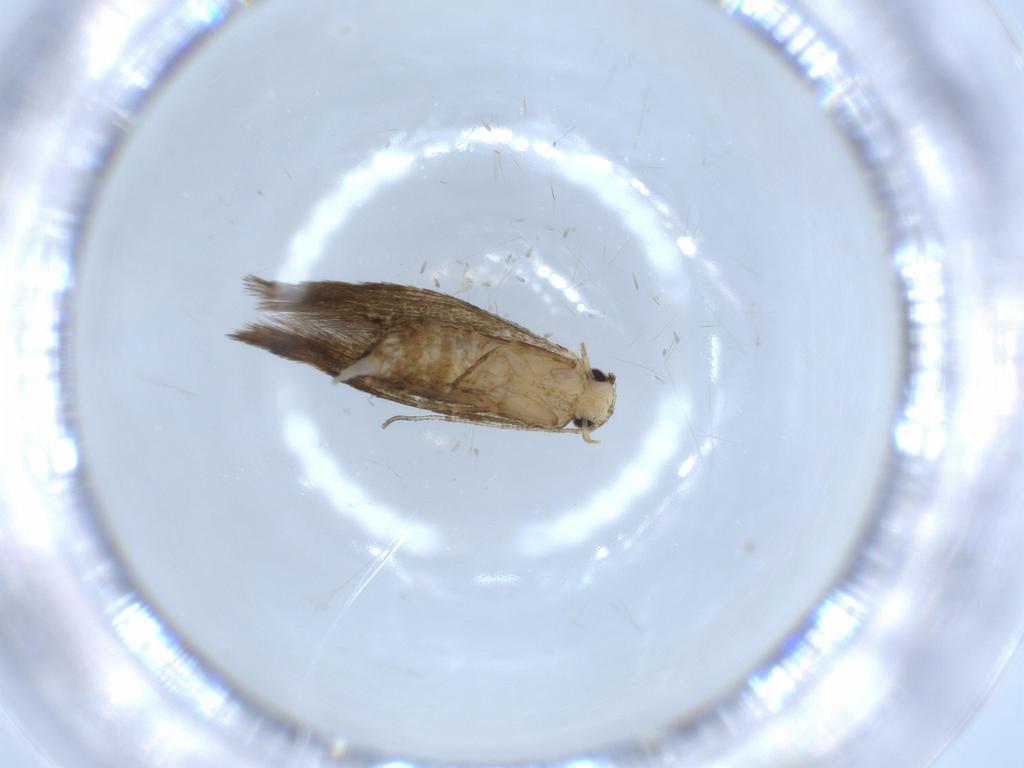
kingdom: Animalia
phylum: Arthropoda
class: Insecta
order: Lepidoptera
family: Tineidae
